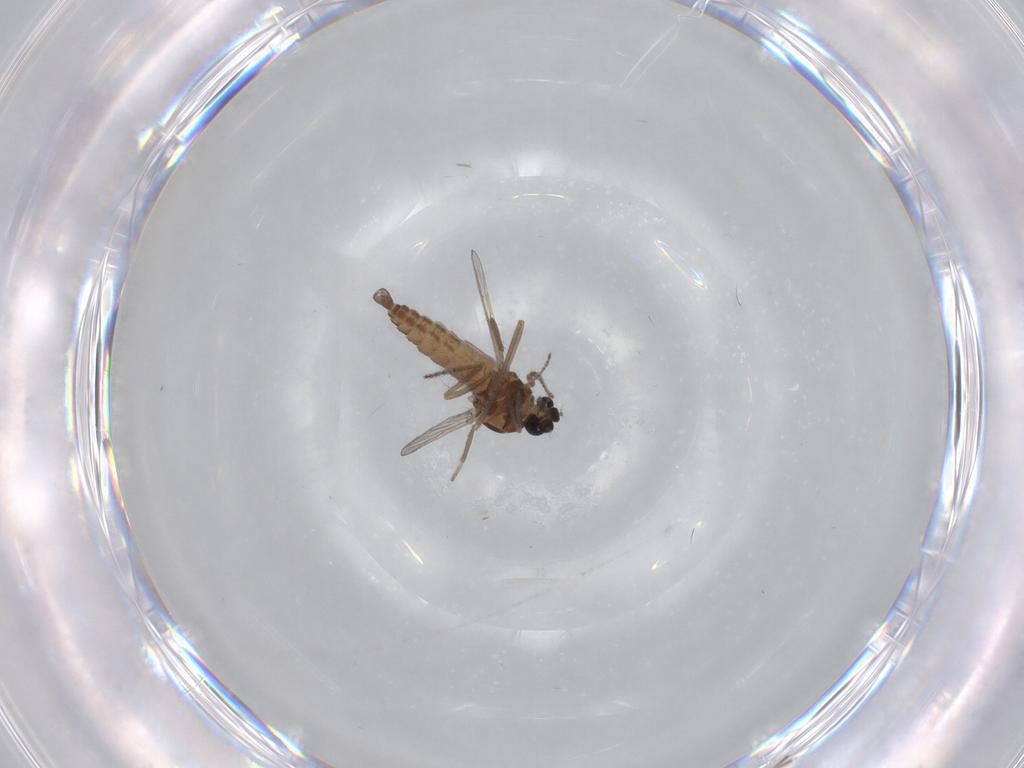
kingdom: Animalia
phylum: Arthropoda
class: Insecta
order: Diptera
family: Ceratopogonidae
